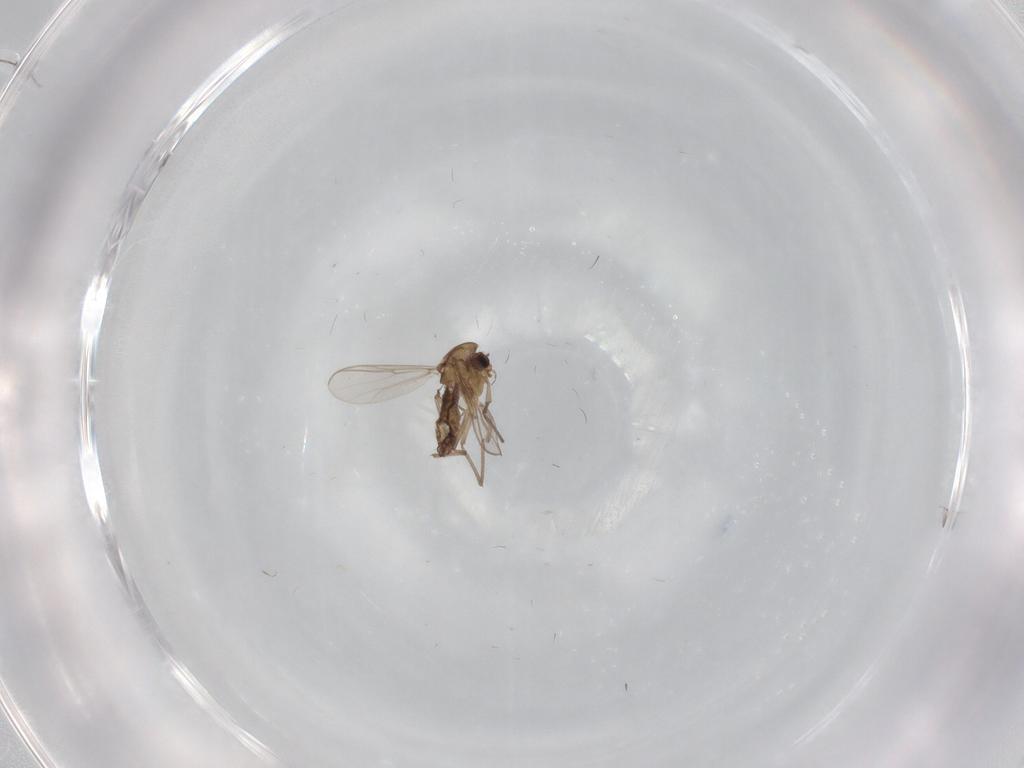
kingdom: Animalia
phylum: Arthropoda
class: Insecta
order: Diptera
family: Chironomidae
